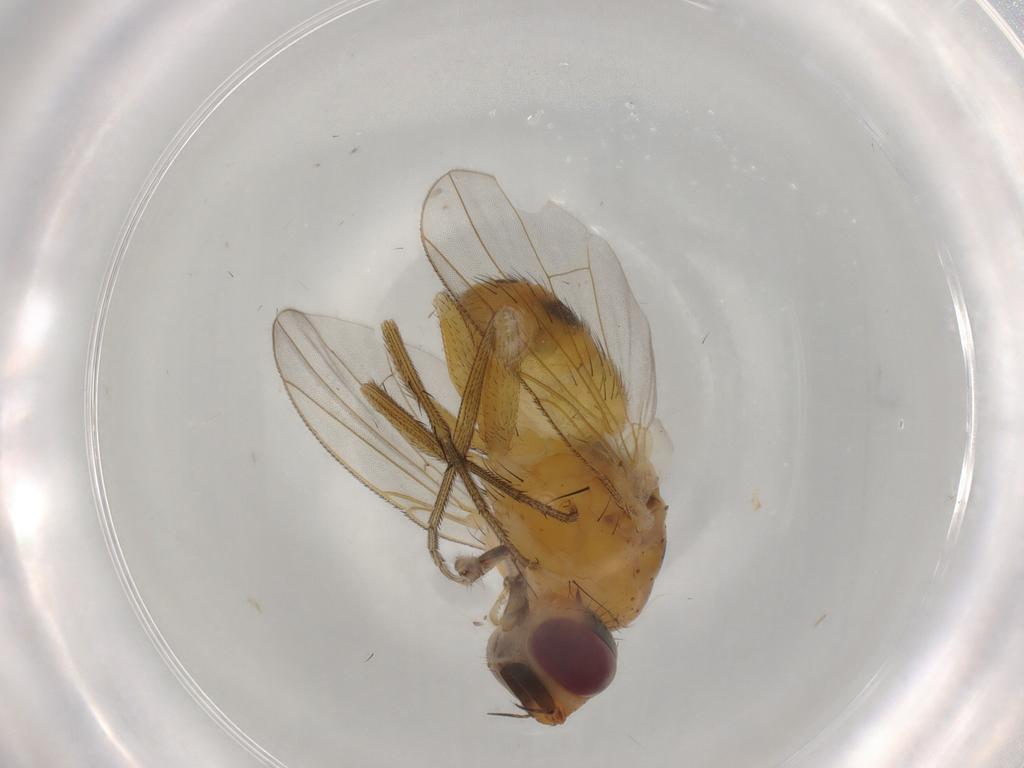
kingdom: Animalia
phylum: Arthropoda
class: Insecta
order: Diptera
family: Muscidae
